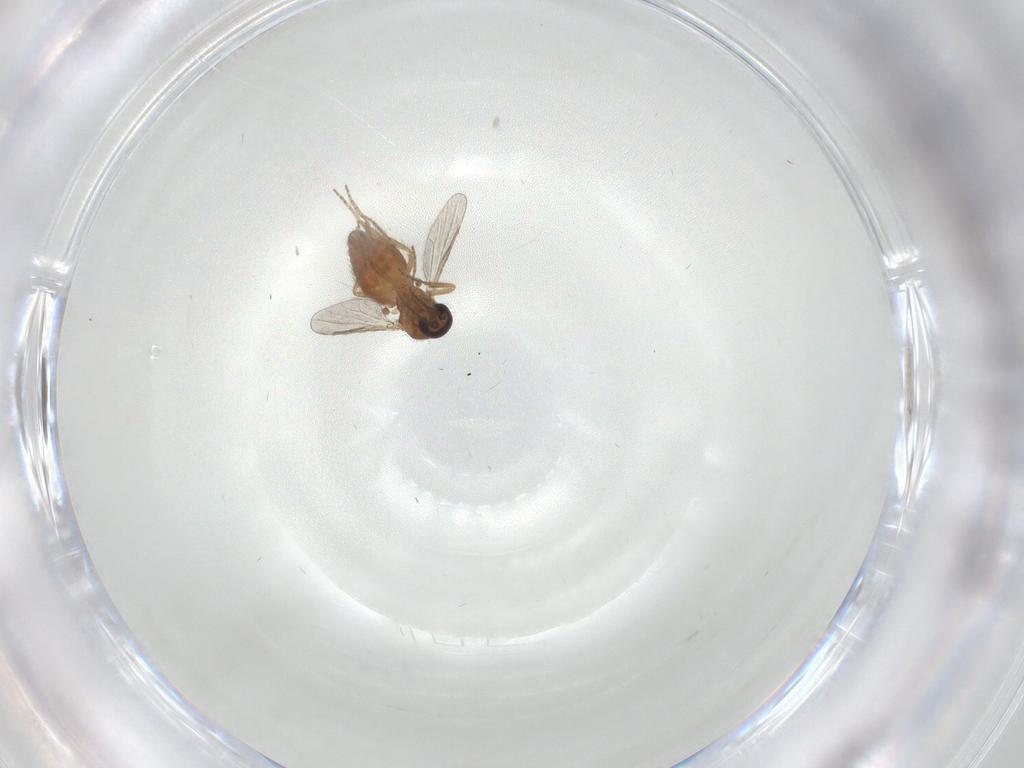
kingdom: Animalia
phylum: Arthropoda
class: Insecta
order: Diptera
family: Ceratopogonidae
